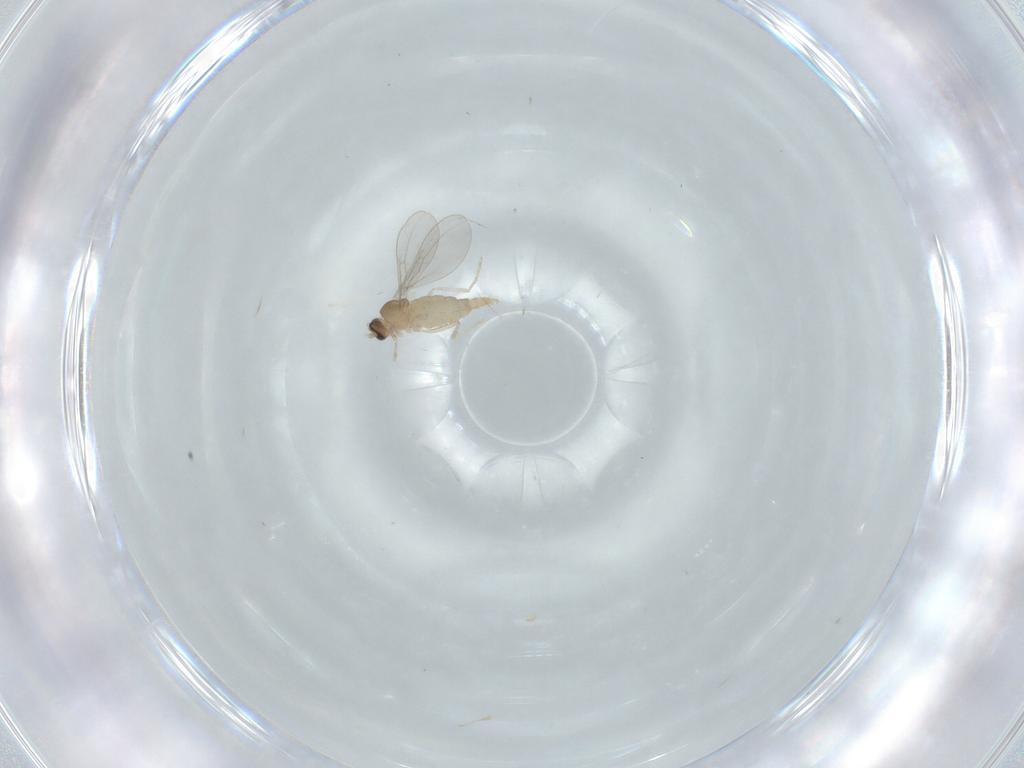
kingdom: Animalia
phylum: Arthropoda
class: Insecta
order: Diptera
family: Cecidomyiidae
